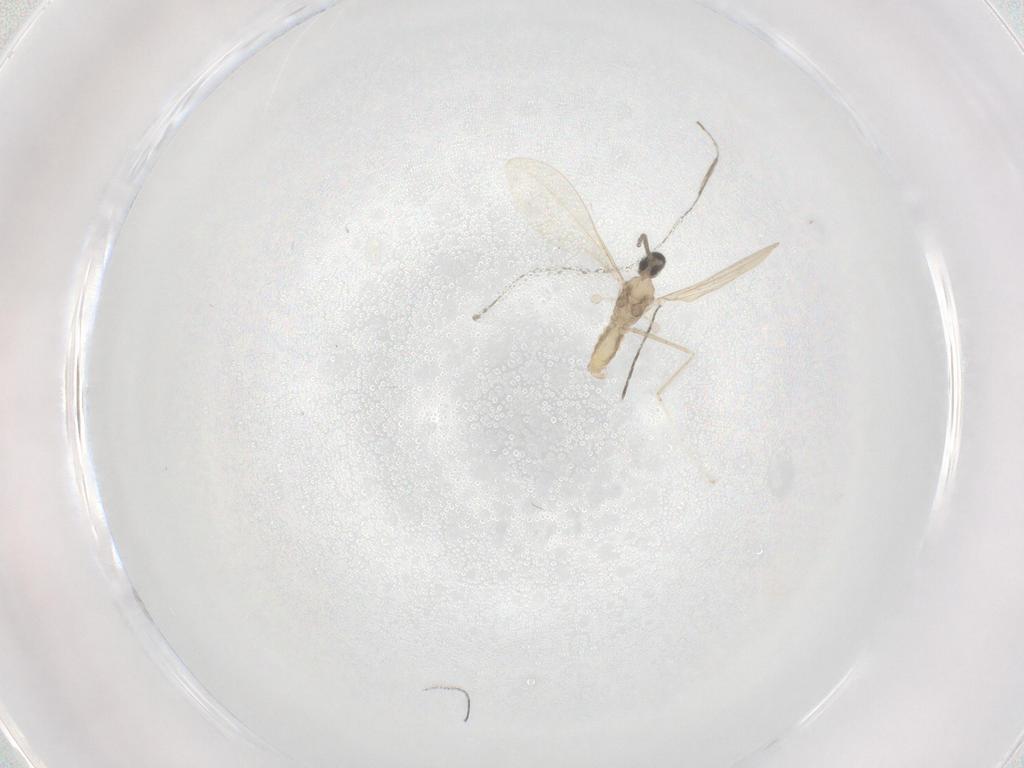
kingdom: Animalia
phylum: Arthropoda
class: Insecta
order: Diptera
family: Cecidomyiidae
